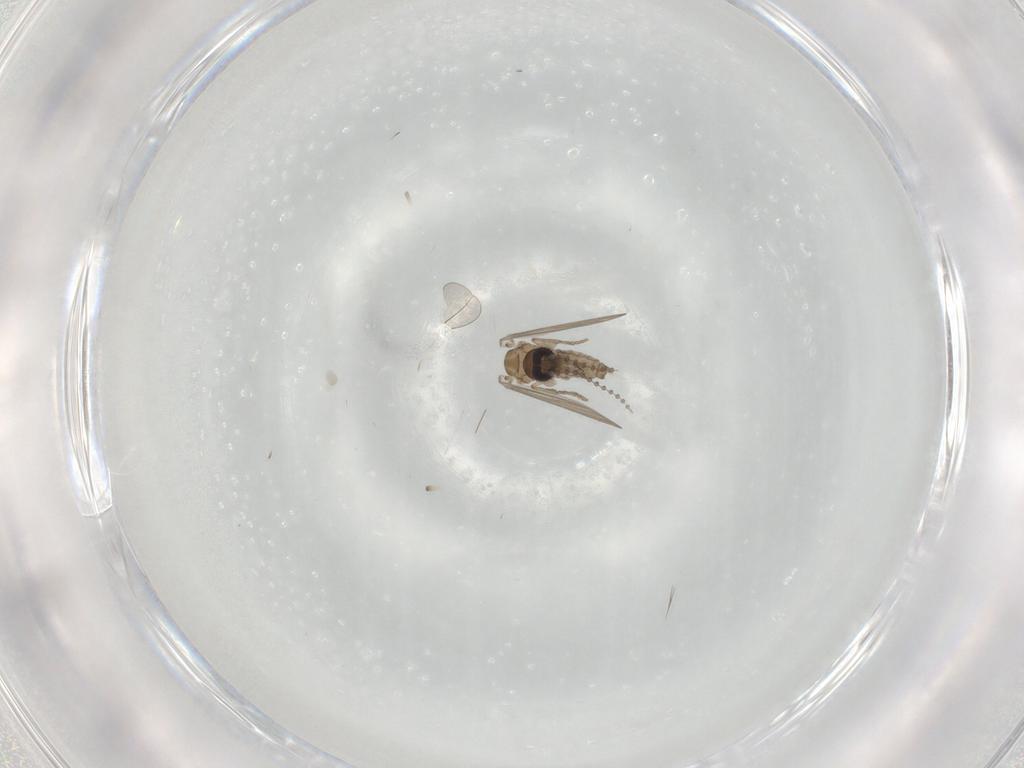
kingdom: Animalia
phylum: Arthropoda
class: Insecta
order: Diptera
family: Psychodidae
